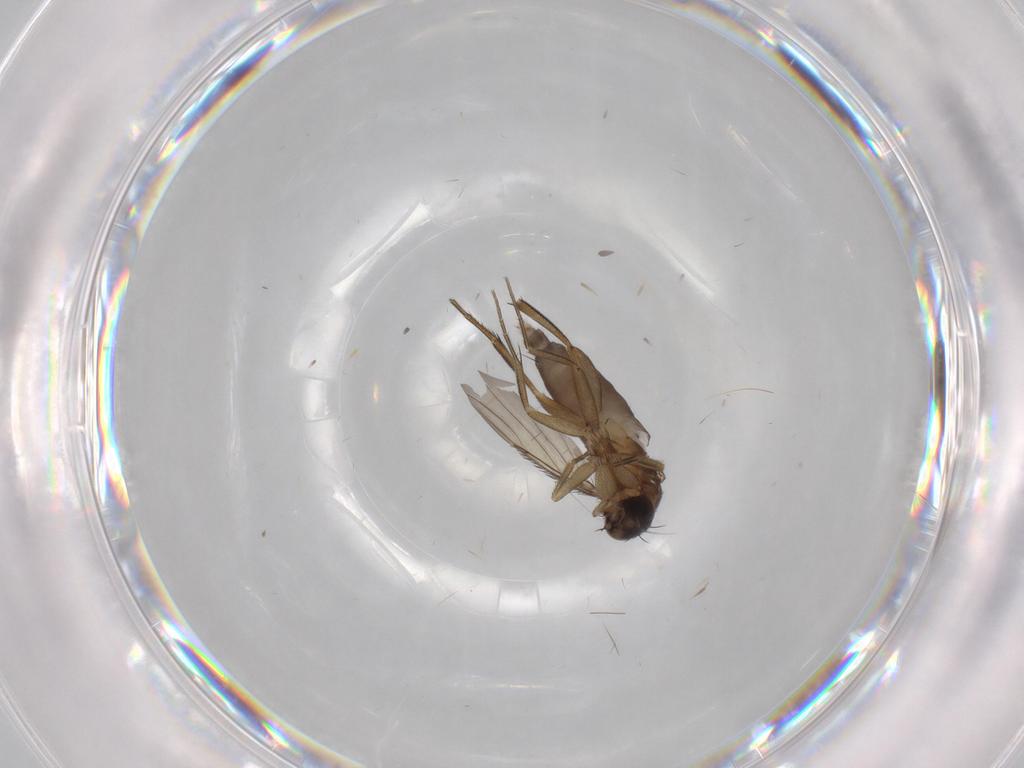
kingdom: Animalia
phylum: Arthropoda
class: Insecta
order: Diptera
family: Phoridae
